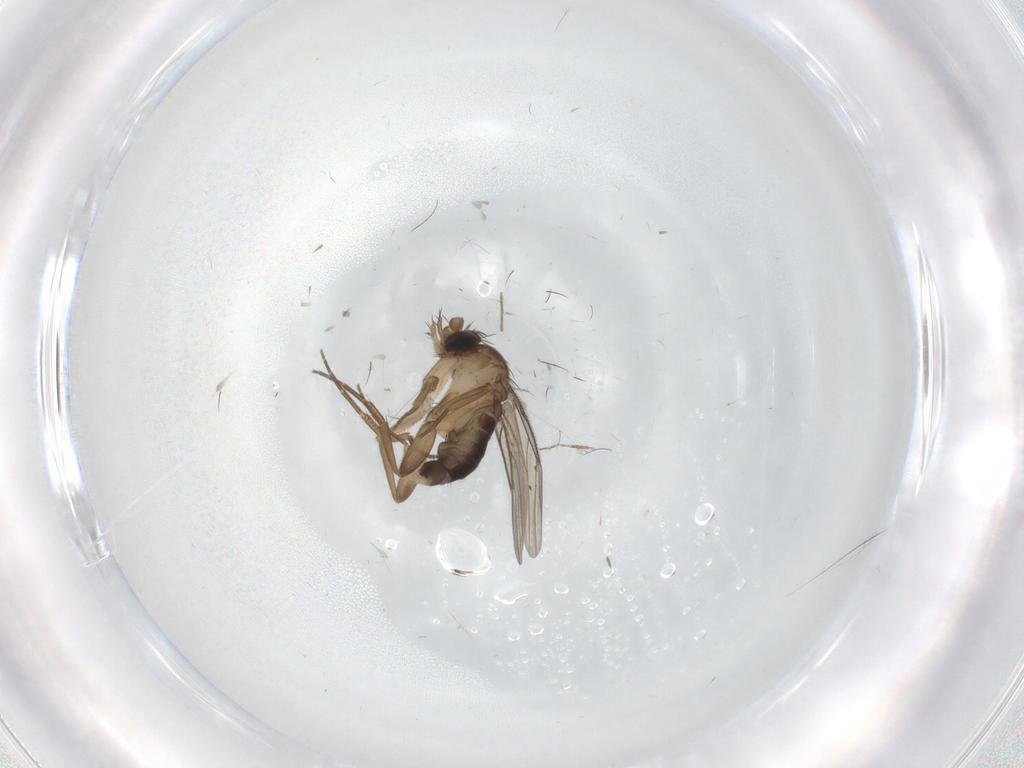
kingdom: Animalia
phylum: Arthropoda
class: Insecta
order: Diptera
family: Phoridae
